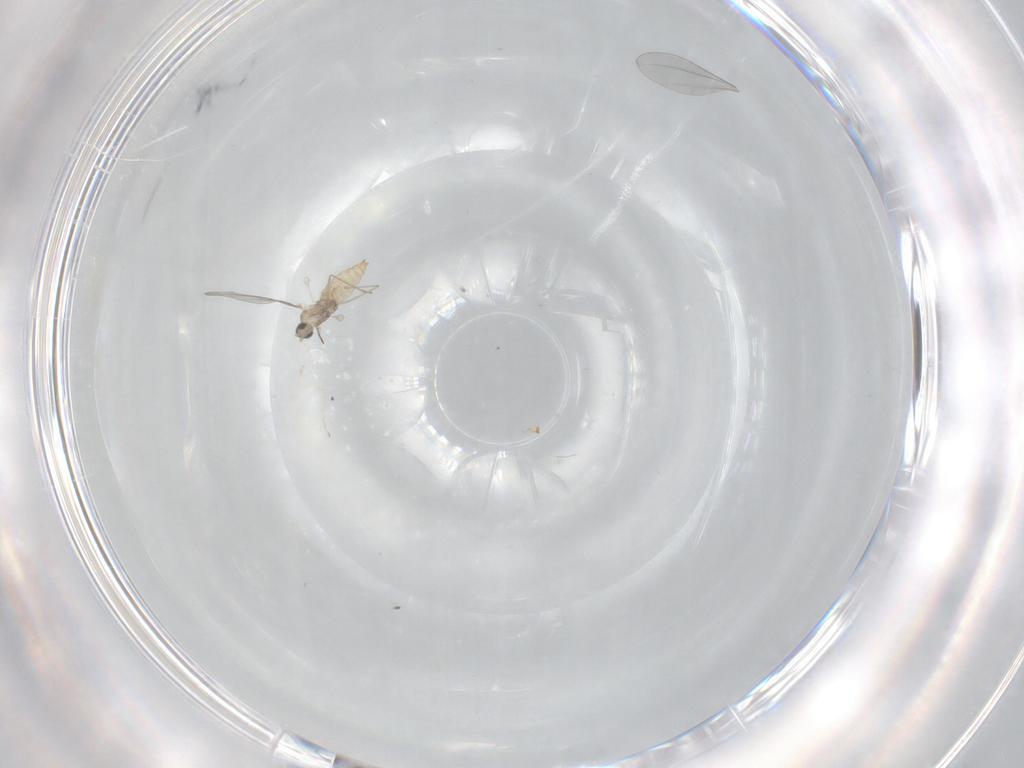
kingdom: Animalia
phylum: Arthropoda
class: Insecta
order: Diptera
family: Cecidomyiidae
